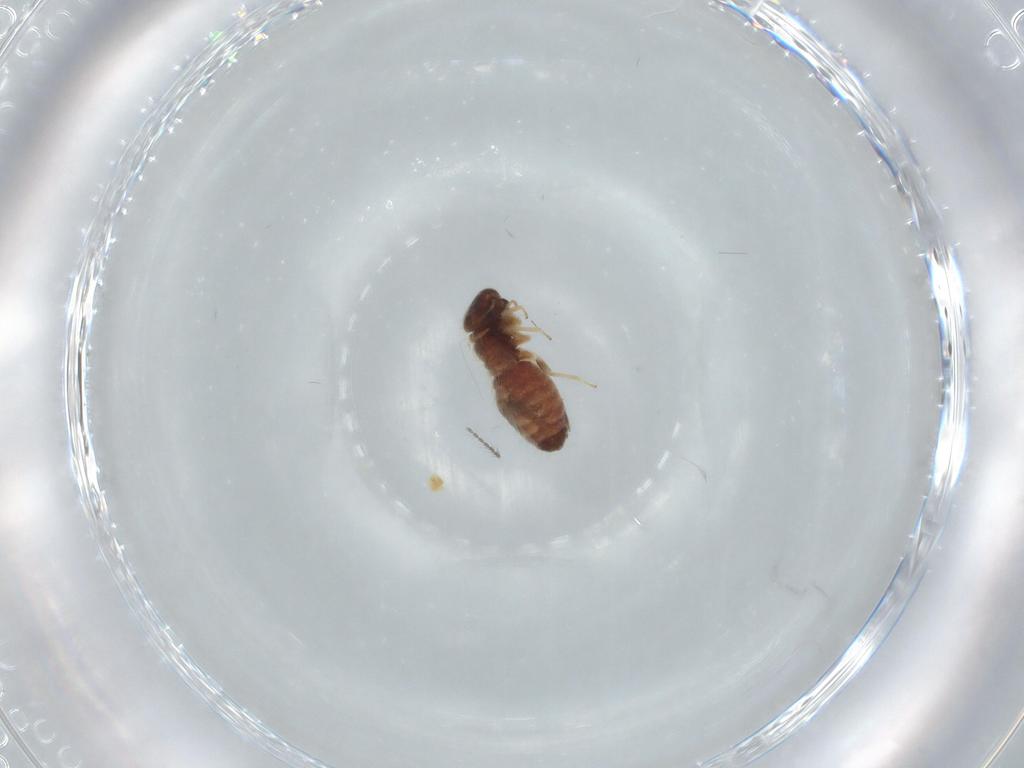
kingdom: Animalia
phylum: Arthropoda
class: Insecta
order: Psocodea
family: Archipsocidae
